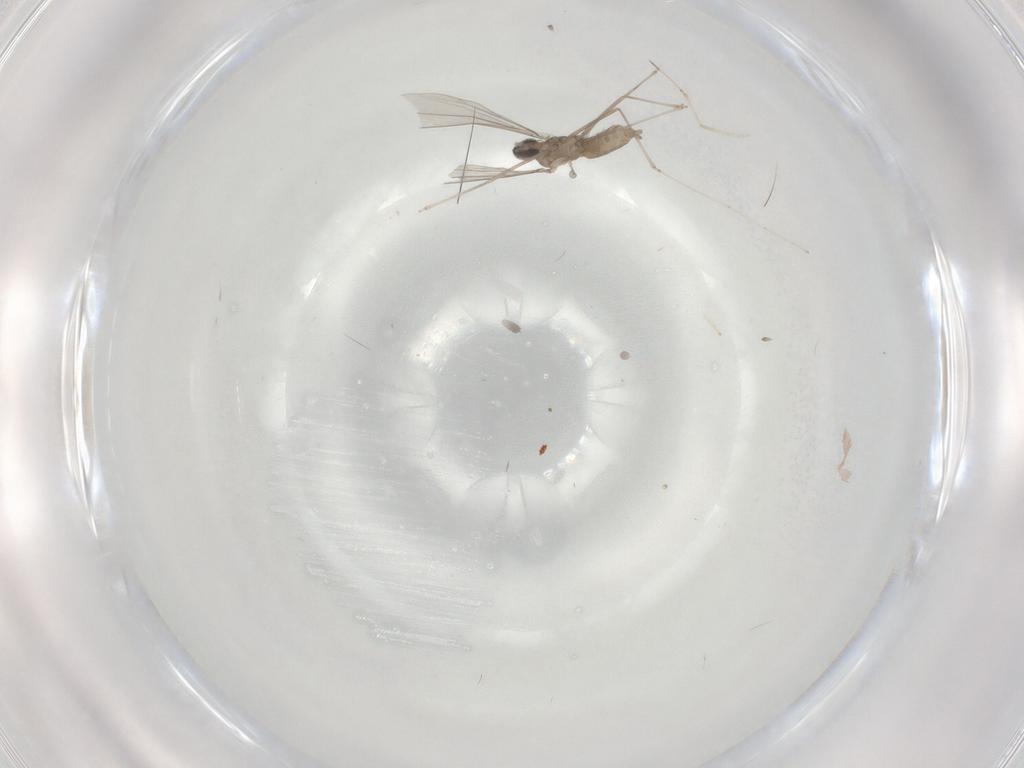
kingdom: Animalia
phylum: Arthropoda
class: Insecta
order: Diptera
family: Cecidomyiidae
